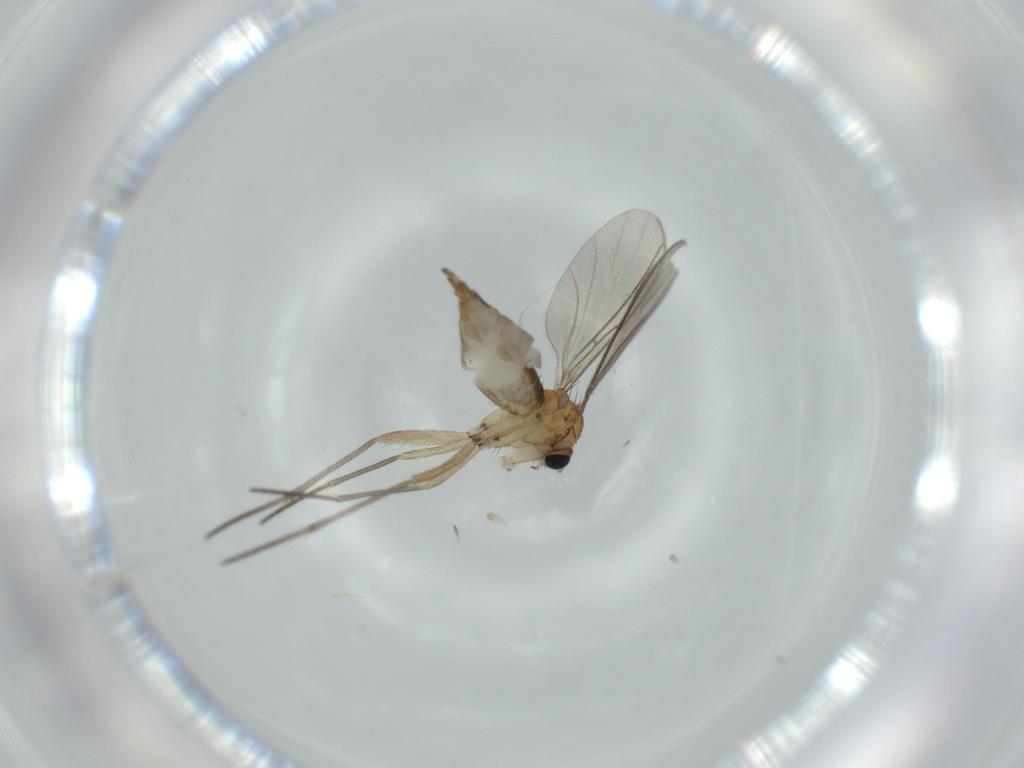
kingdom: Animalia
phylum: Arthropoda
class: Insecta
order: Diptera
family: Sciaridae
